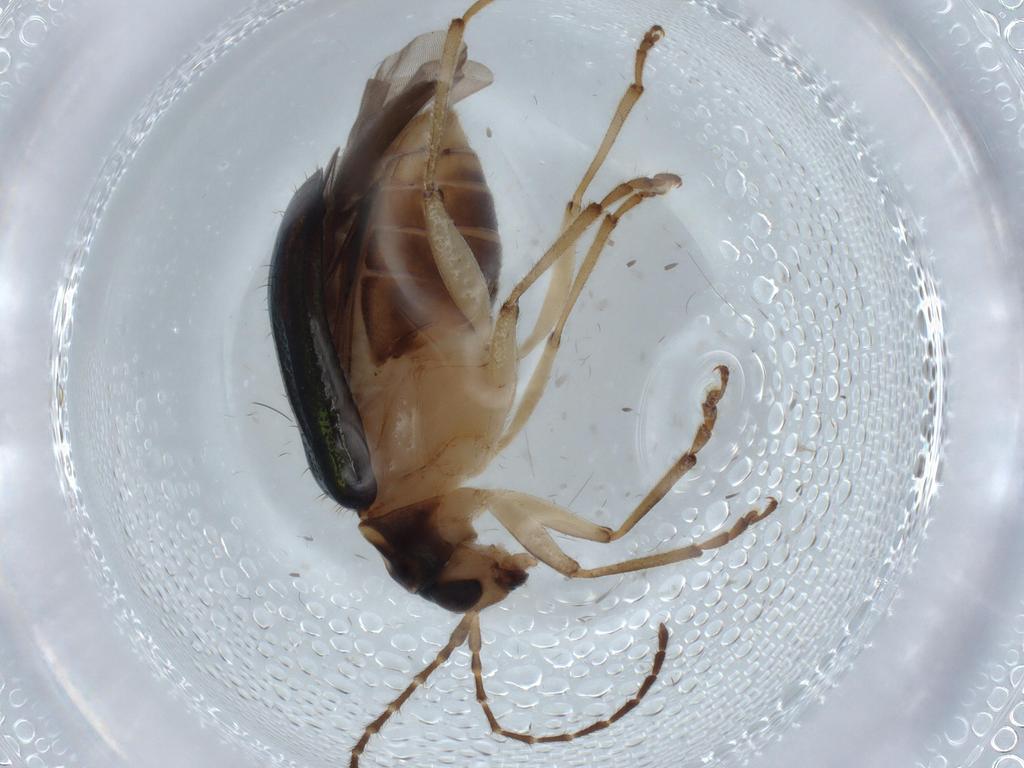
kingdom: Animalia
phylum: Arthropoda
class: Insecta
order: Coleoptera
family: Chrysomelidae
